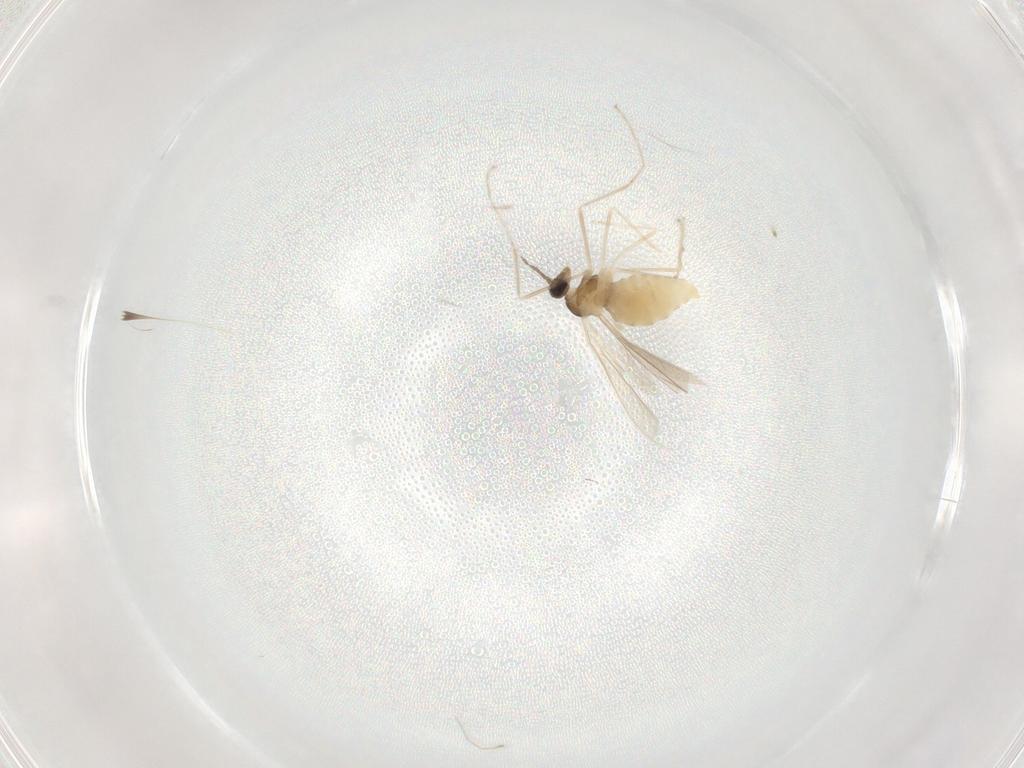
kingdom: Animalia
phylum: Arthropoda
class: Insecta
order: Diptera
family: Cecidomyiidae
